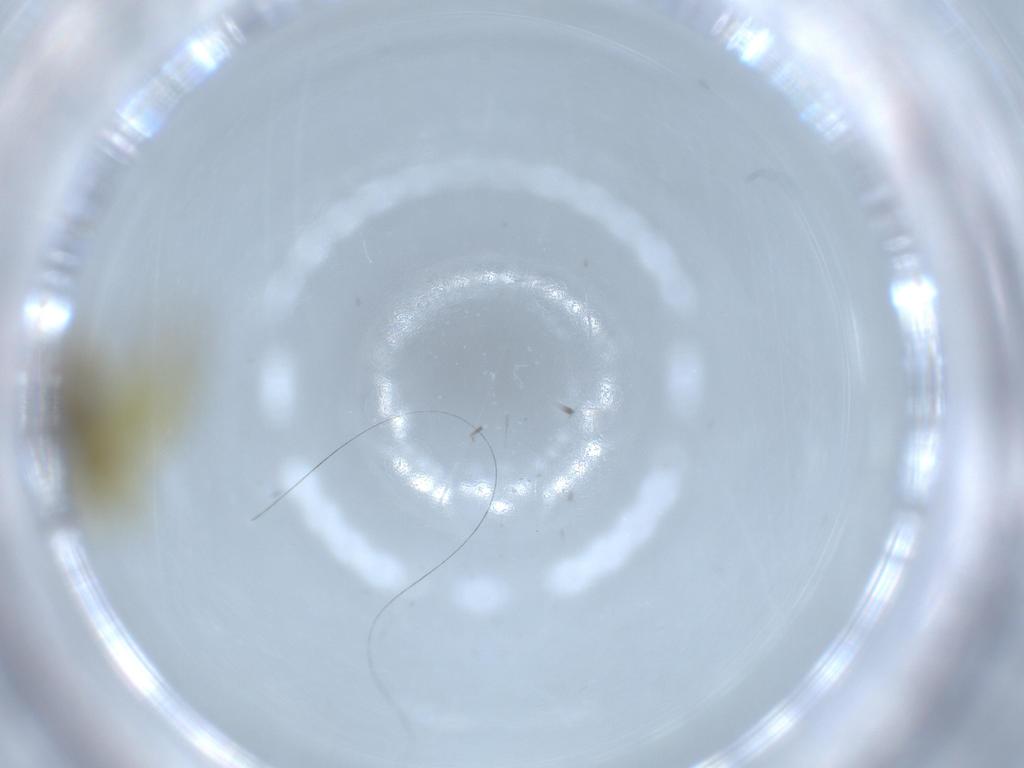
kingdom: Animalia
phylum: Arthropoda
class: Insecta
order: Hemiptera
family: Cicadellidae
